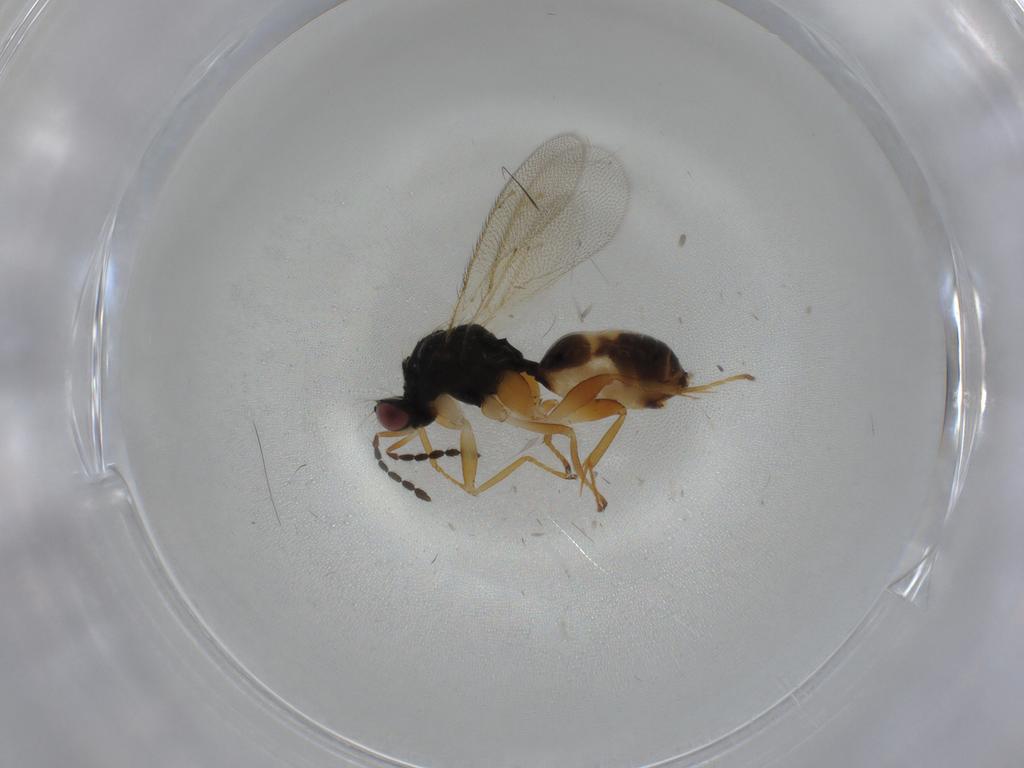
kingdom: Animalia
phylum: Arthropoda
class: Insecta
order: Hymenoptera
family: Eulophidae
